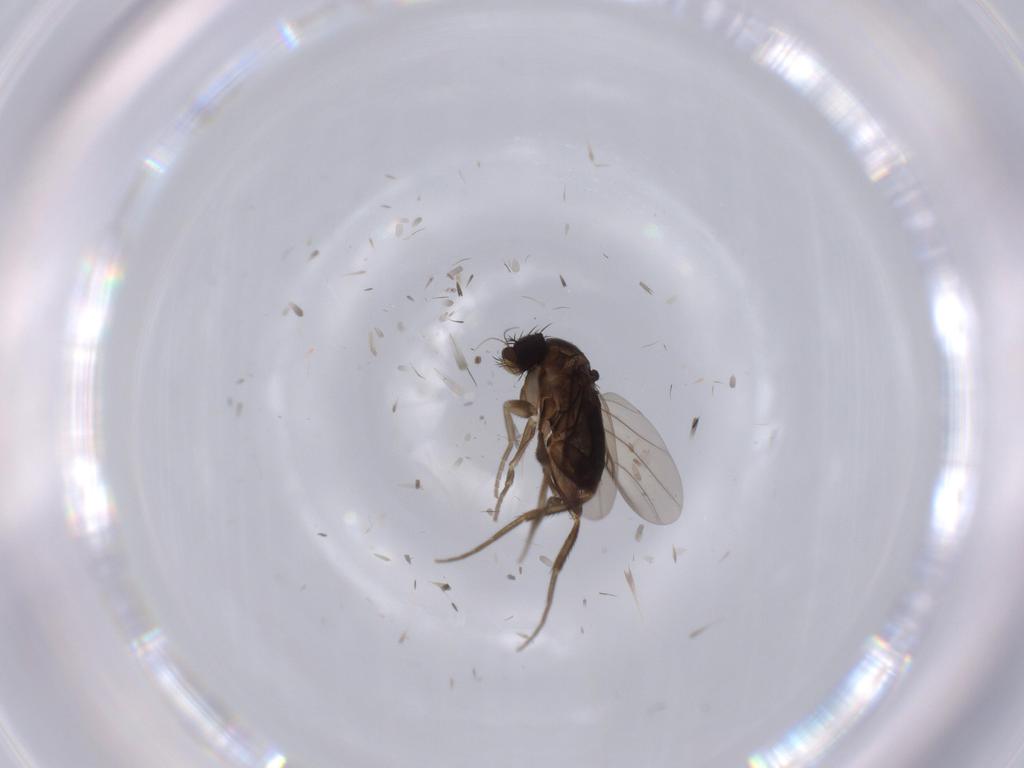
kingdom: Animalia
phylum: Arthropoda
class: Insecta
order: Diptera
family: Phoridae
